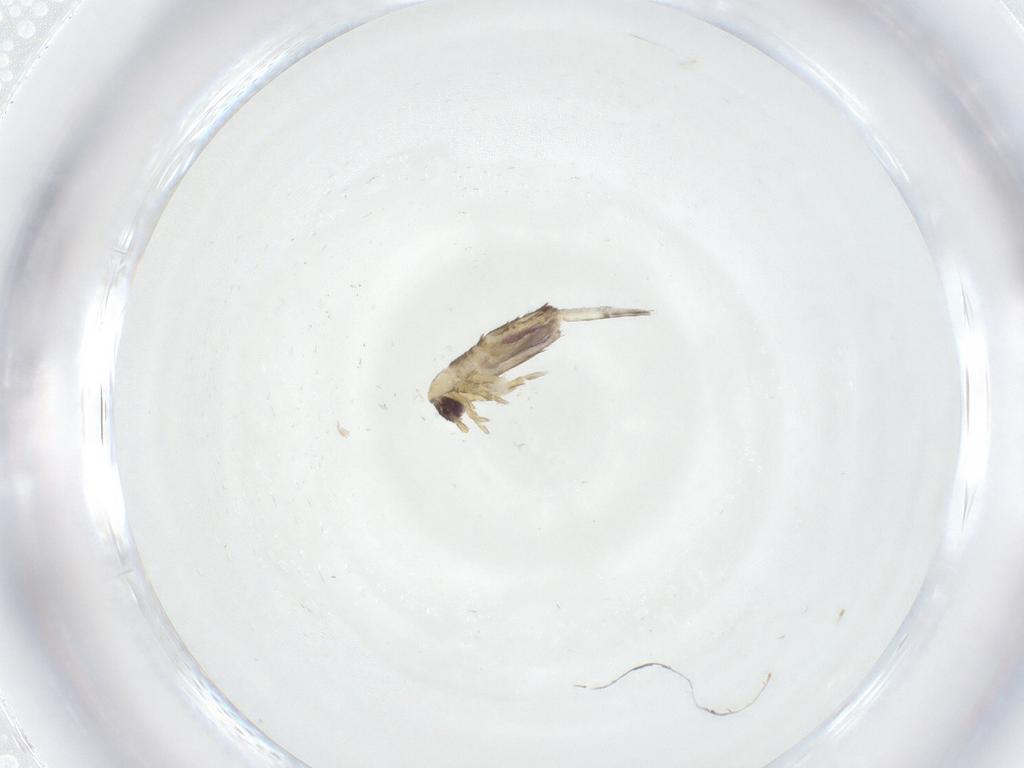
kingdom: Animalia
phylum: Arthropoda
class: Collembola
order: Entomobryomorpha
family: Entomobryidae
